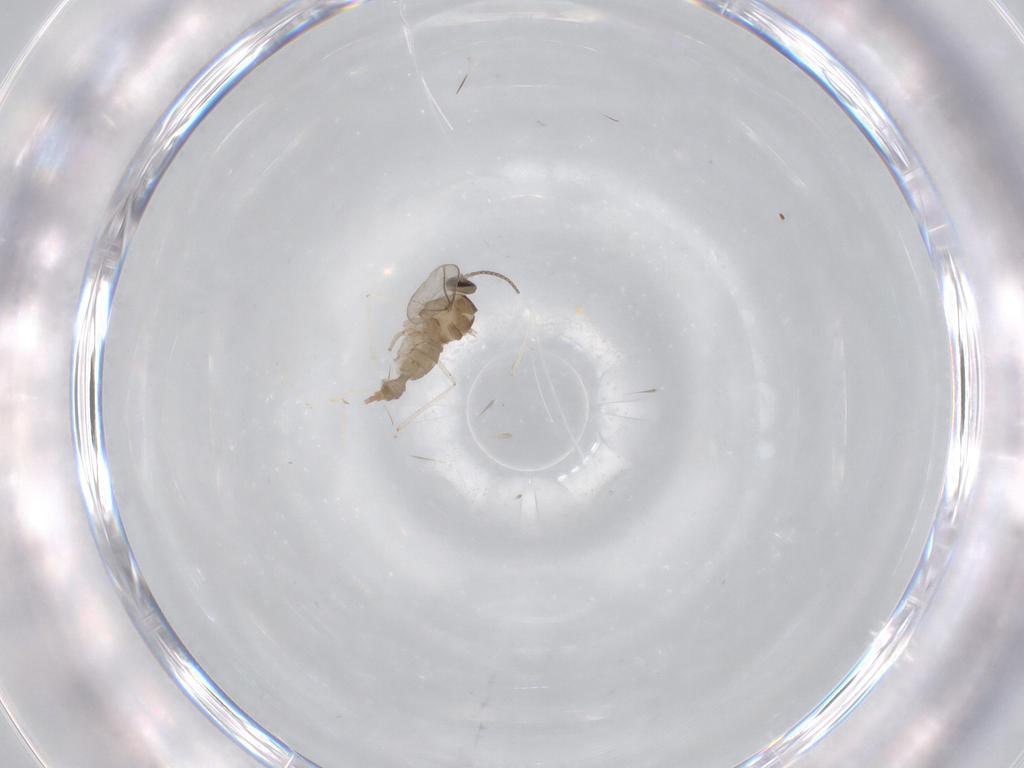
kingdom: Animalia
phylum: Arthropoda
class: Insecta
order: Diptera
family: Cecidomyiidae
